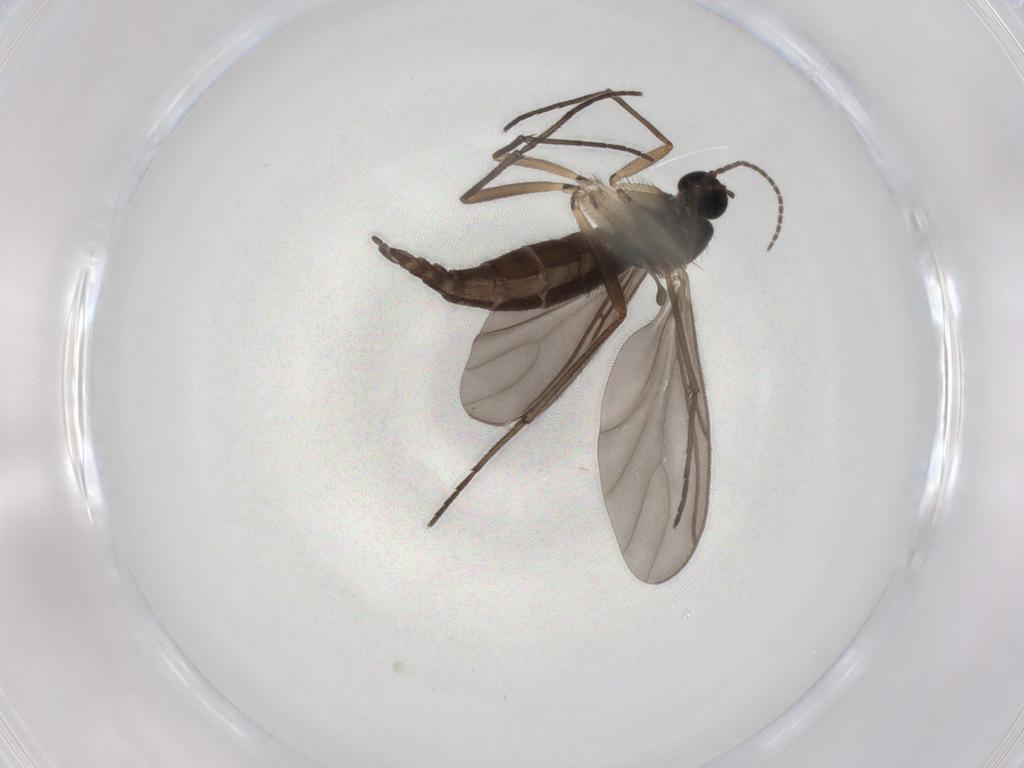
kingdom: Animalia
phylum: Arthropoda
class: Insecta
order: Diptera
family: Sciaridae
